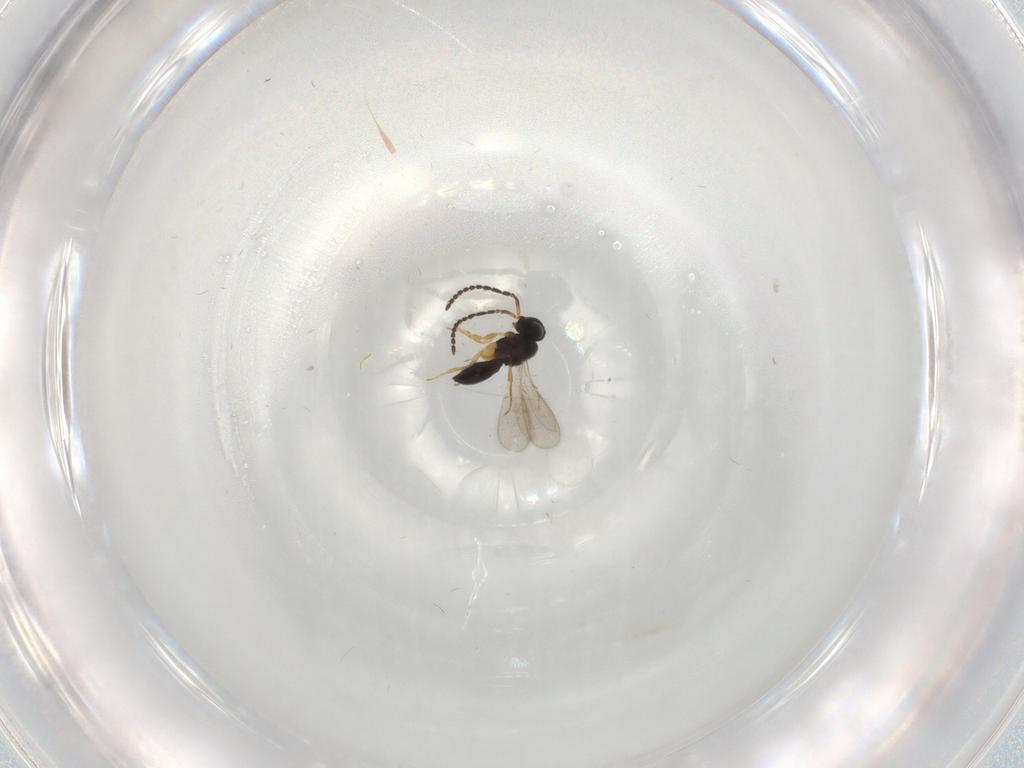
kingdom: Animalia
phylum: Arthropoda
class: Insecta
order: Hymenoptera
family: Scelionidae
